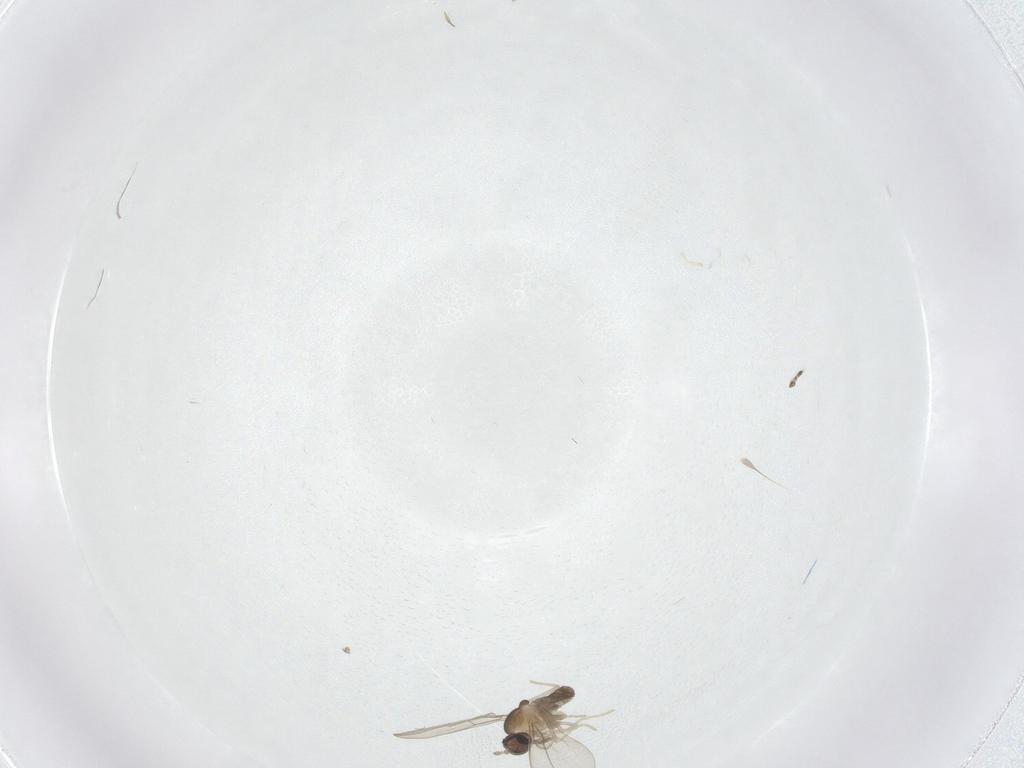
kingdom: Animalia
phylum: Arthropoda
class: Insecta
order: Diptera
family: Cecidomyiidae
